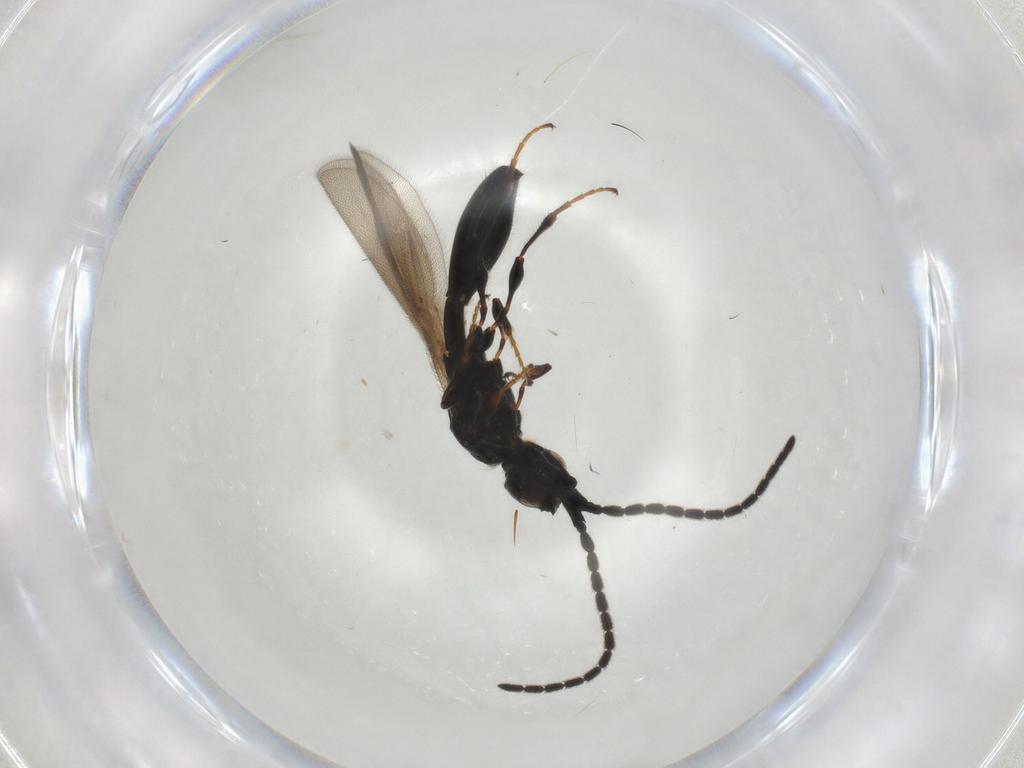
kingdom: Animalia
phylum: Arthropoda
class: Insecta
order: Hymenoptera
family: Diapriidae
